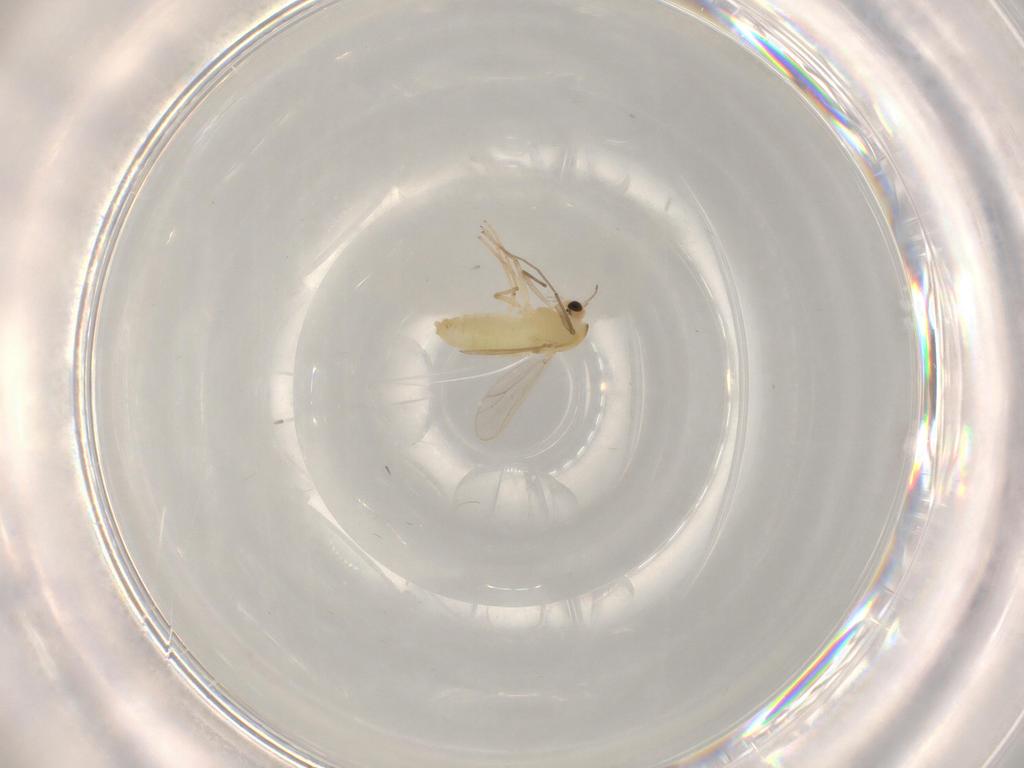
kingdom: Animalia
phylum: Arthropoda
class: Insecta
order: Diptera
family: Chironomidae
